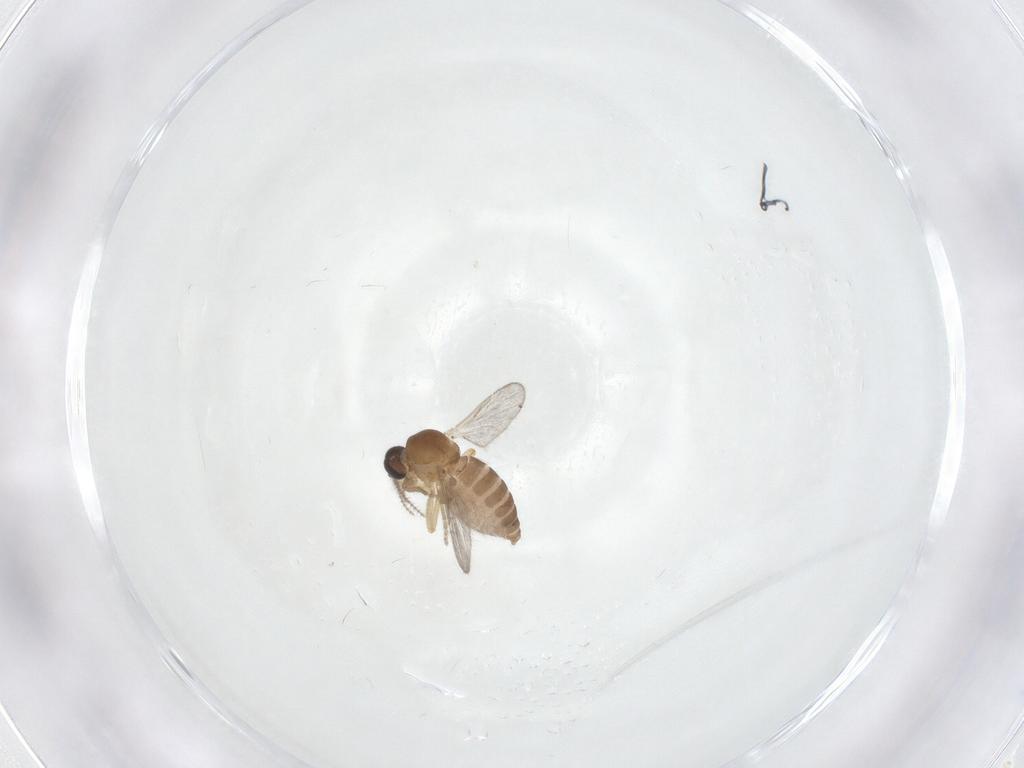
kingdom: Animalia
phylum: Arthropoda
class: Insecta
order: Diptera
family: Ceratopogonidae
